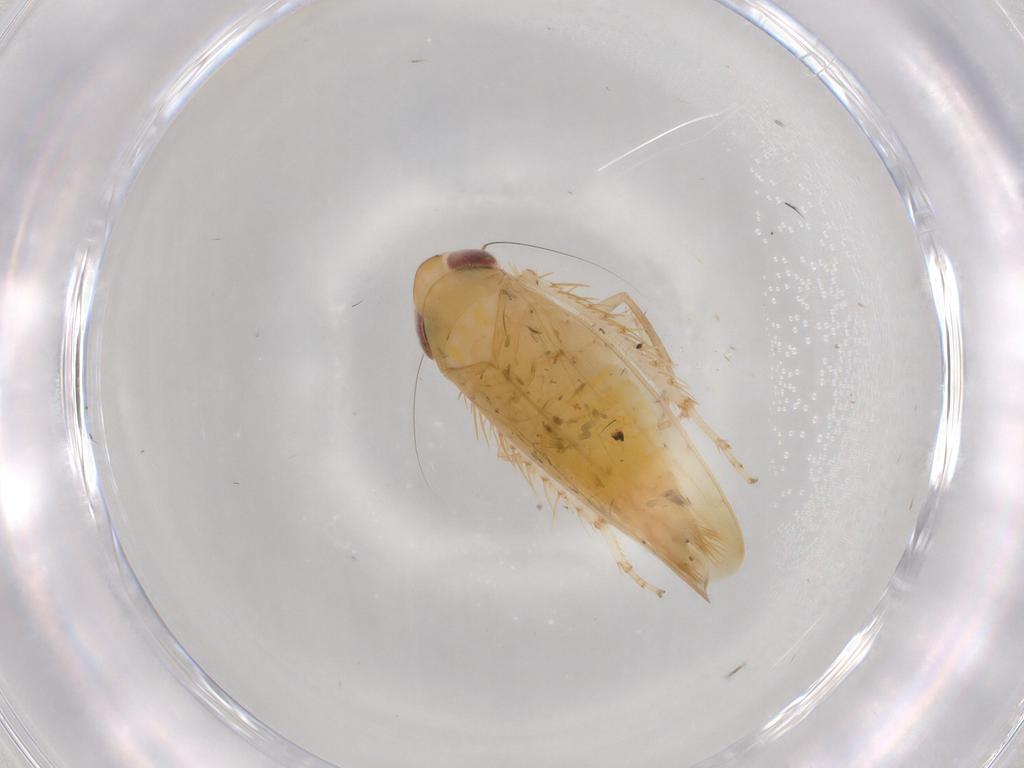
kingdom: Animalia
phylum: Arthropoda
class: Insecta
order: Hemiptera
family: Cicadellidae
